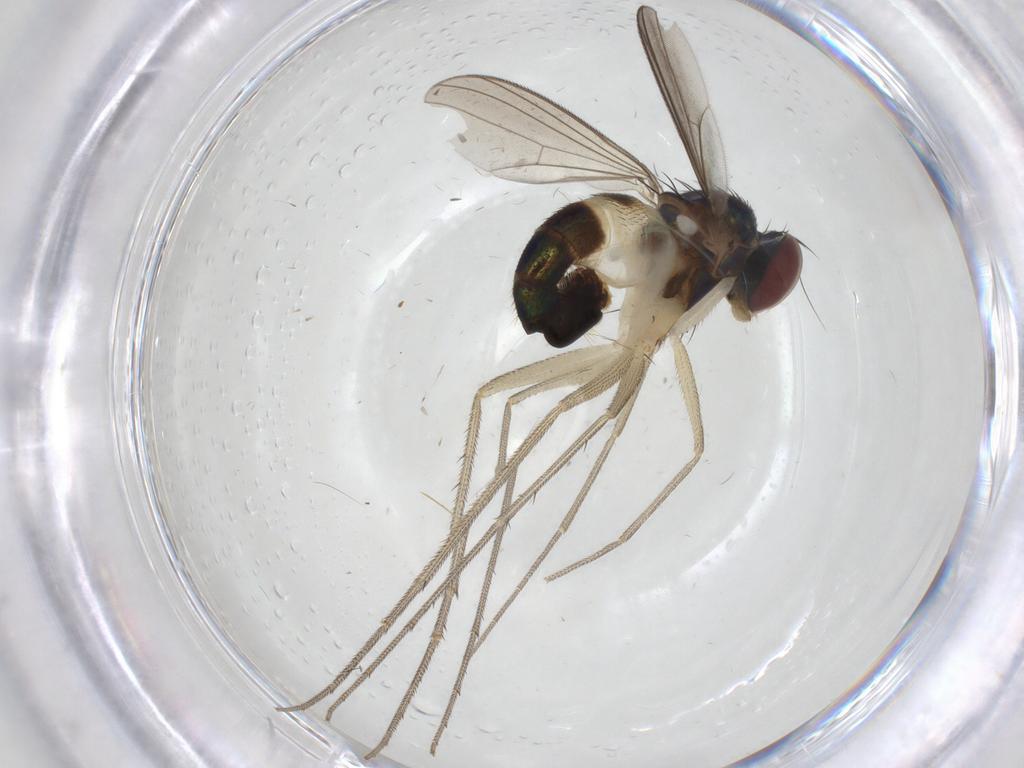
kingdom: Animalia
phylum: Arthropoda
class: Insecta
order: Diptera
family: Dolichopodidae
